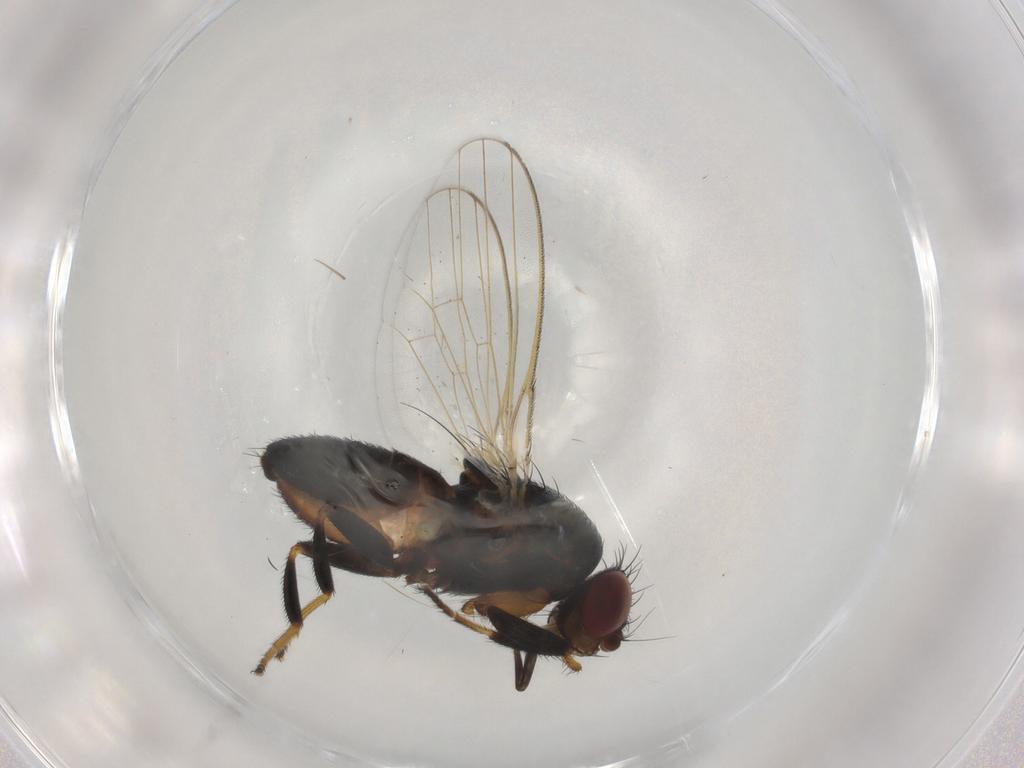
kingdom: Animalia
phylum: Arthropoda
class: Insecta
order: Diptera
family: Milichiidae
